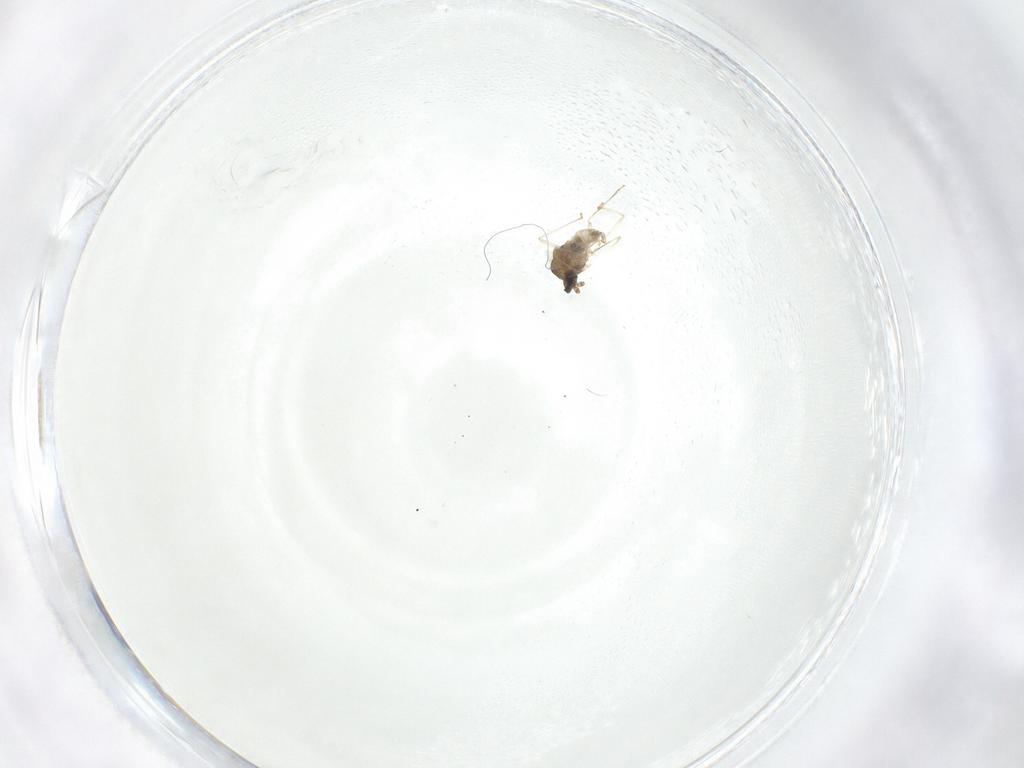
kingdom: Animalia
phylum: Arthropoda
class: Insecta
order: Diptera
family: Cecidomyiidae
